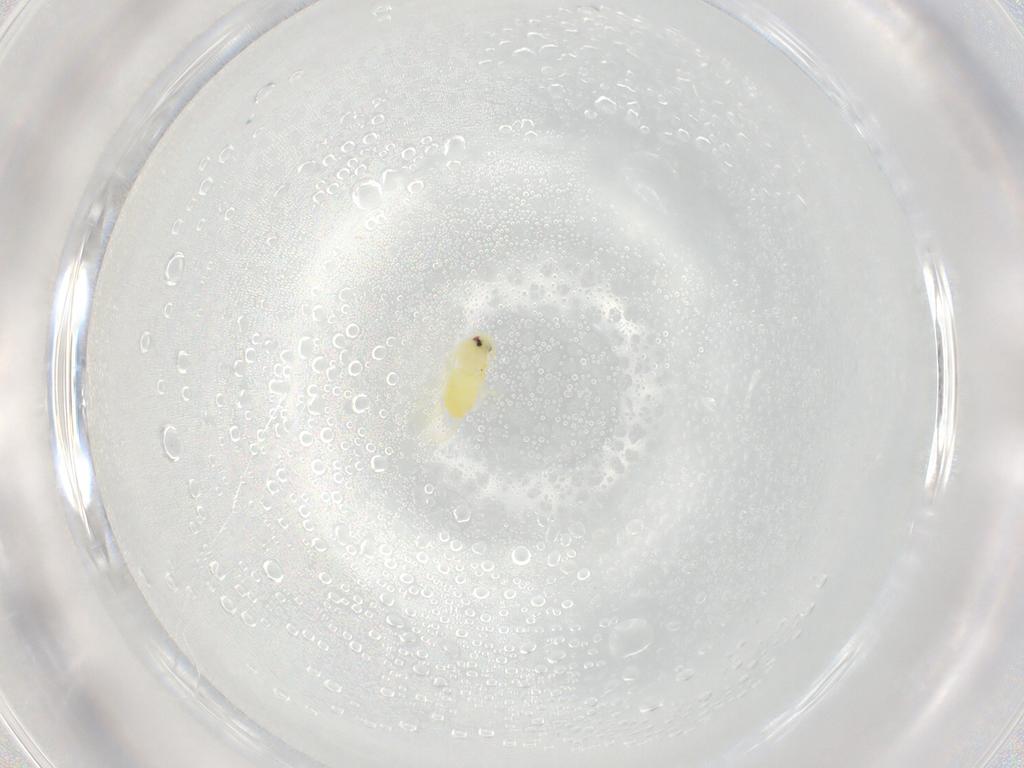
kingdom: Animalia
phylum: Arthropoda
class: Insecta
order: Hemiptera
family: Aleyrodidae
